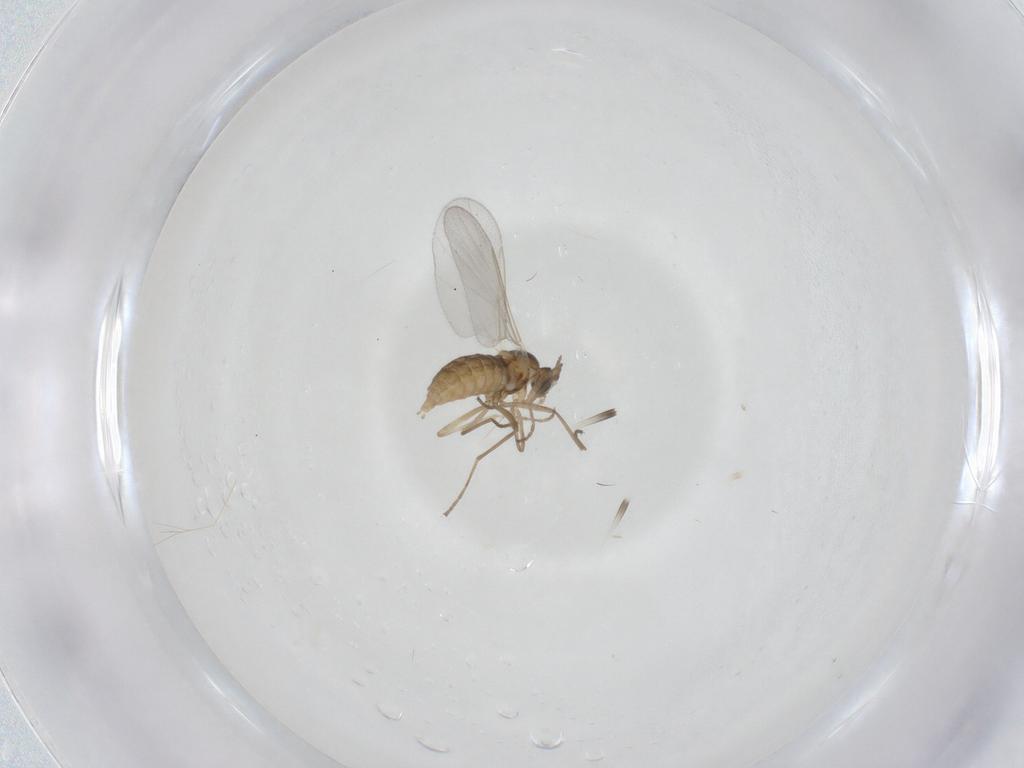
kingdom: Animalia
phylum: Arthropoda
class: Insecta
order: Diptera
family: Cecidomyiidae
